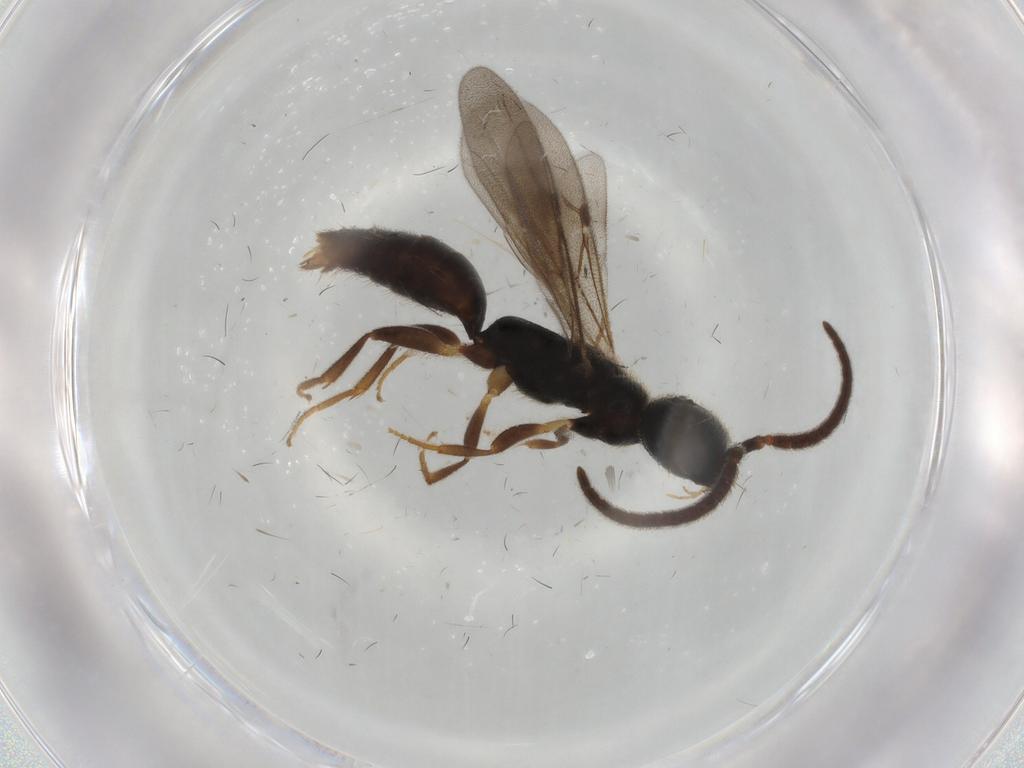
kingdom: Animalia
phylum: Arthropoda
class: Insecta
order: Hymenoptera
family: Bethylidae
